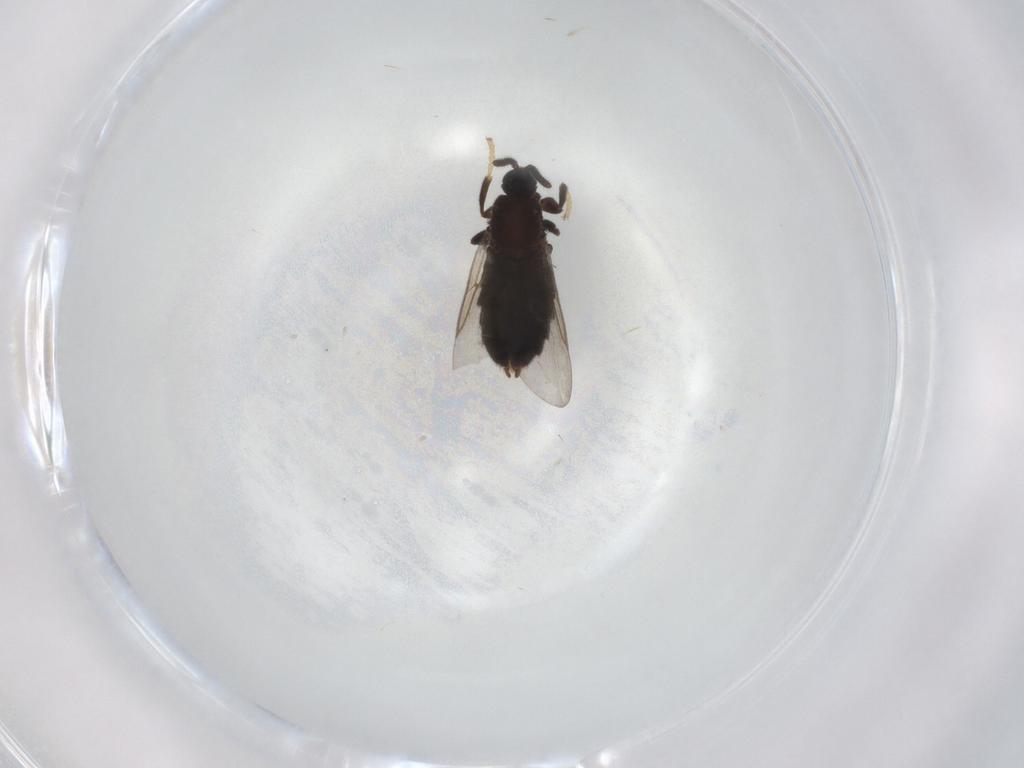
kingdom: Animalia
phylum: Arthropoda
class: Insecta
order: Diptera
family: Scatopsidae
